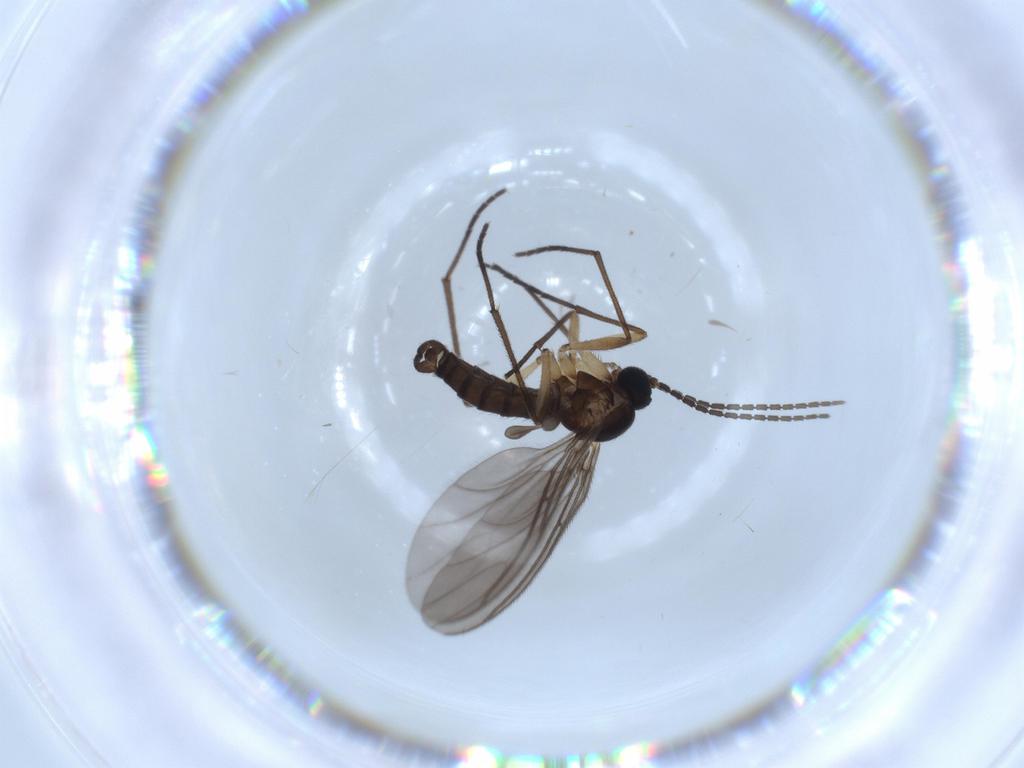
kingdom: Animalia
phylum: Arthropoda
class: Insecta
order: Diptera
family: Sciaridae
